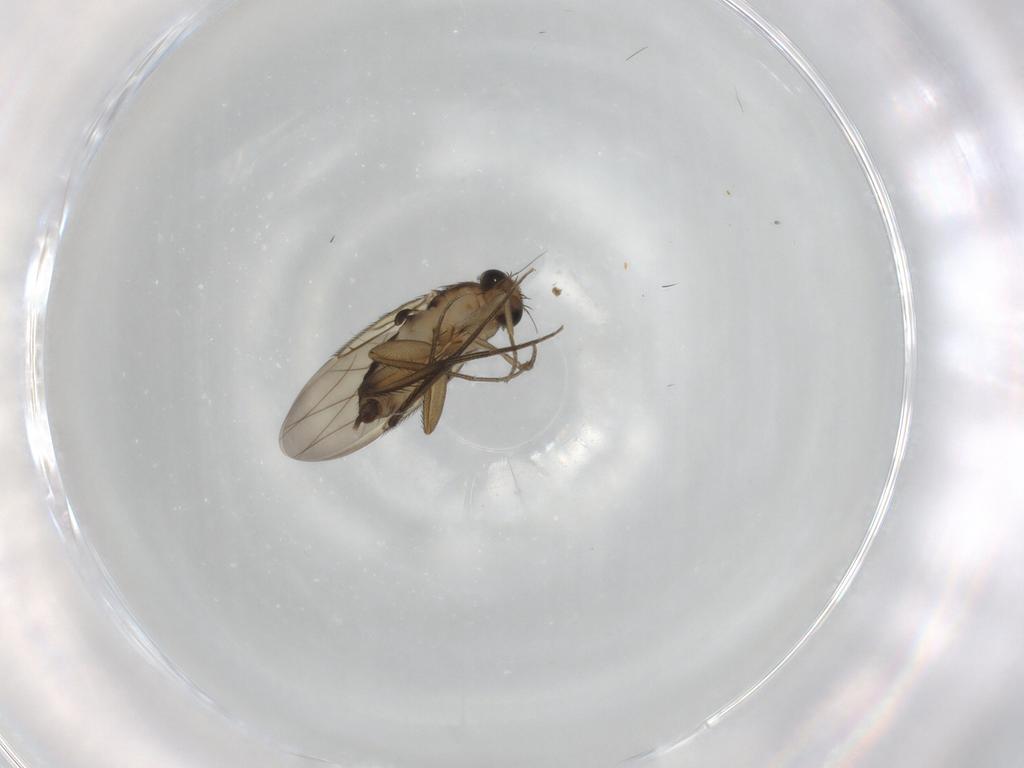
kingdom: Animalia
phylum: Arthropoda
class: Insecta
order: Diptera
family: Phoridae
